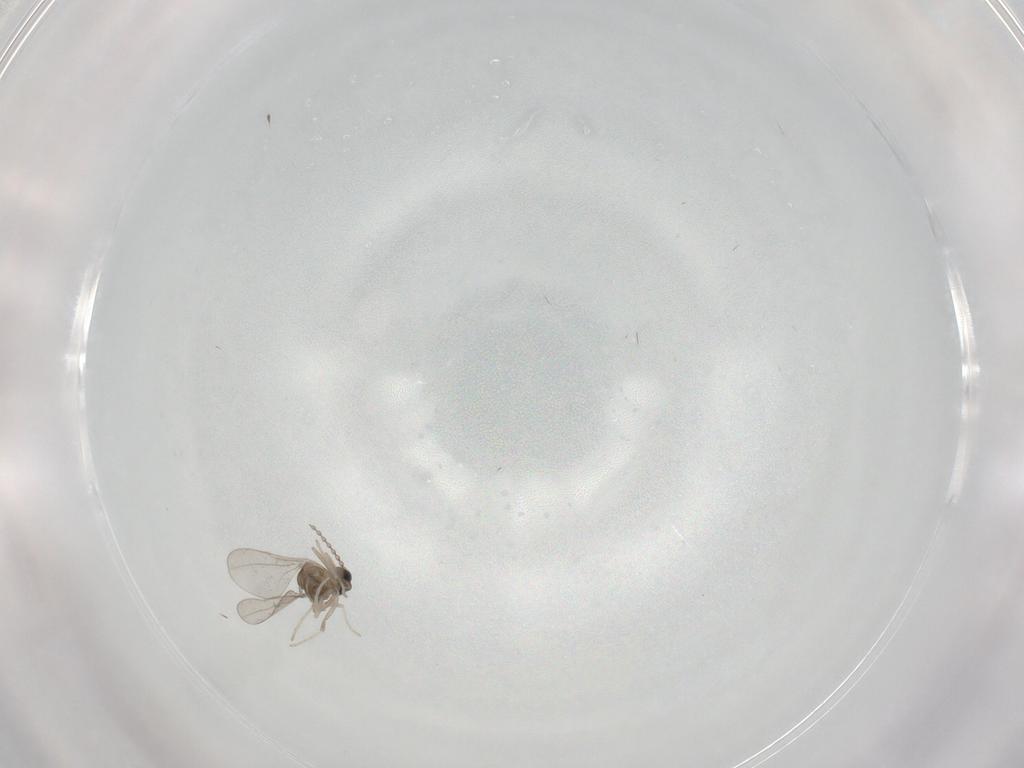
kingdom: Animalia
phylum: Arthropoda
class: Insecta
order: Diptera
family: Cecidomyiidae
